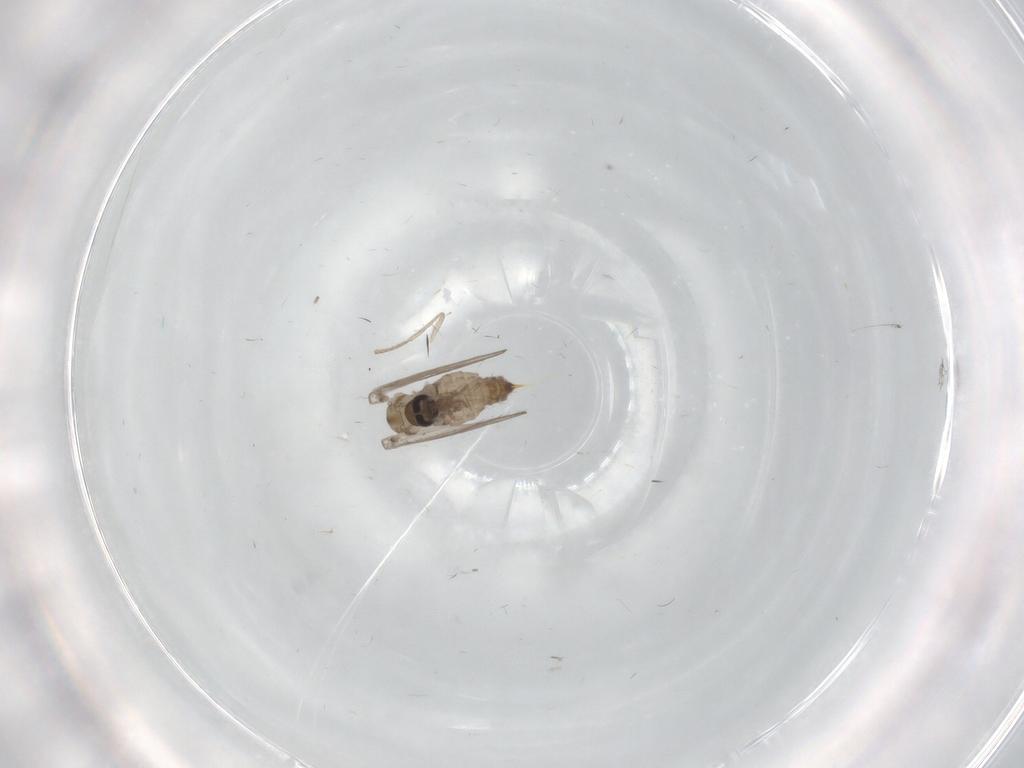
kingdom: Animalia
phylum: Arthropoda
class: Insecta
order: Diptera
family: Psychodidae
